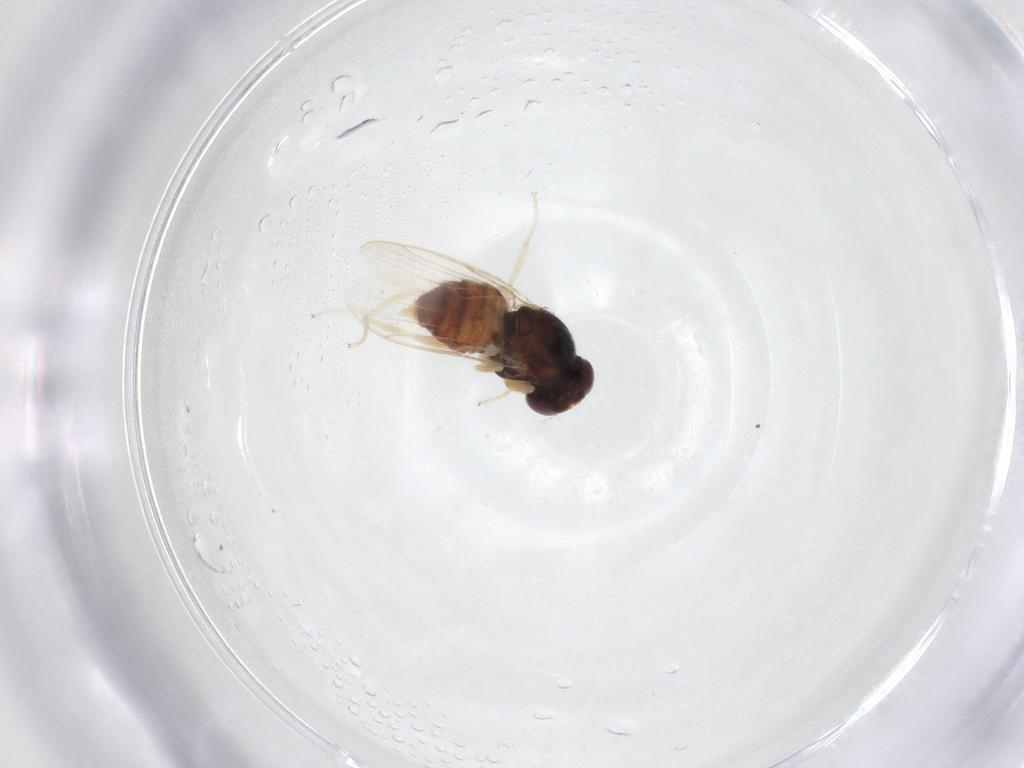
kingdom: Animalia
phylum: Arthropoda
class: Insecta
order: Diptera
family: Chloropidae
